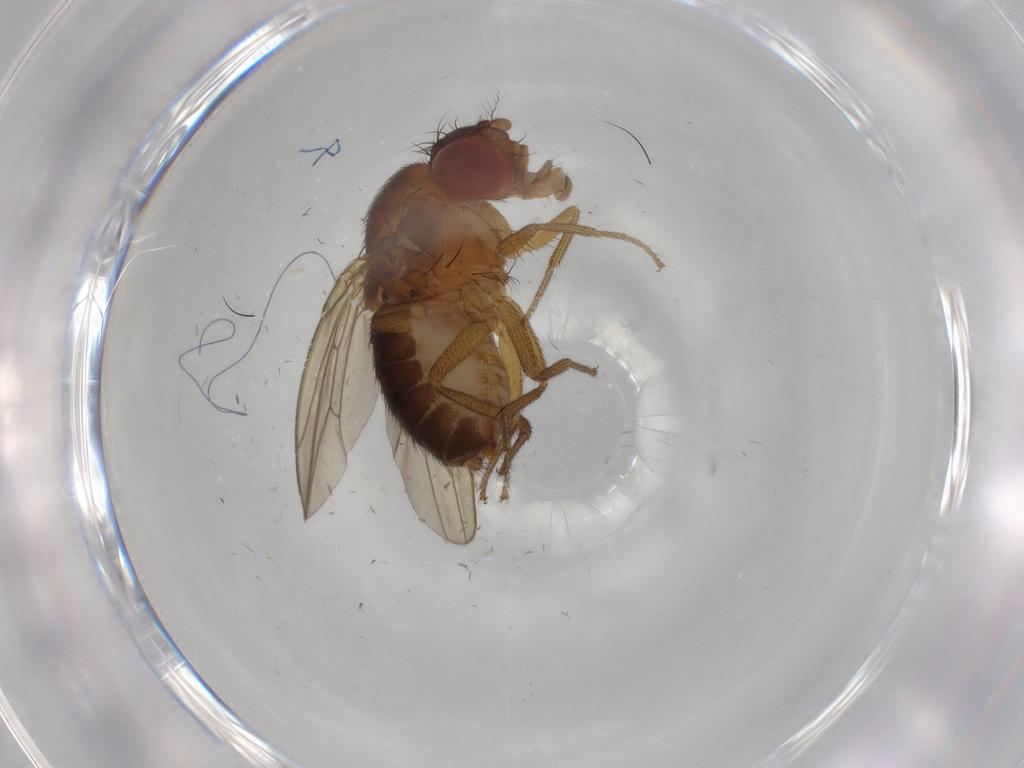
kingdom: Animalia
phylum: Arthropoda
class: Insecta
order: Diptera
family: Drosophilidae
